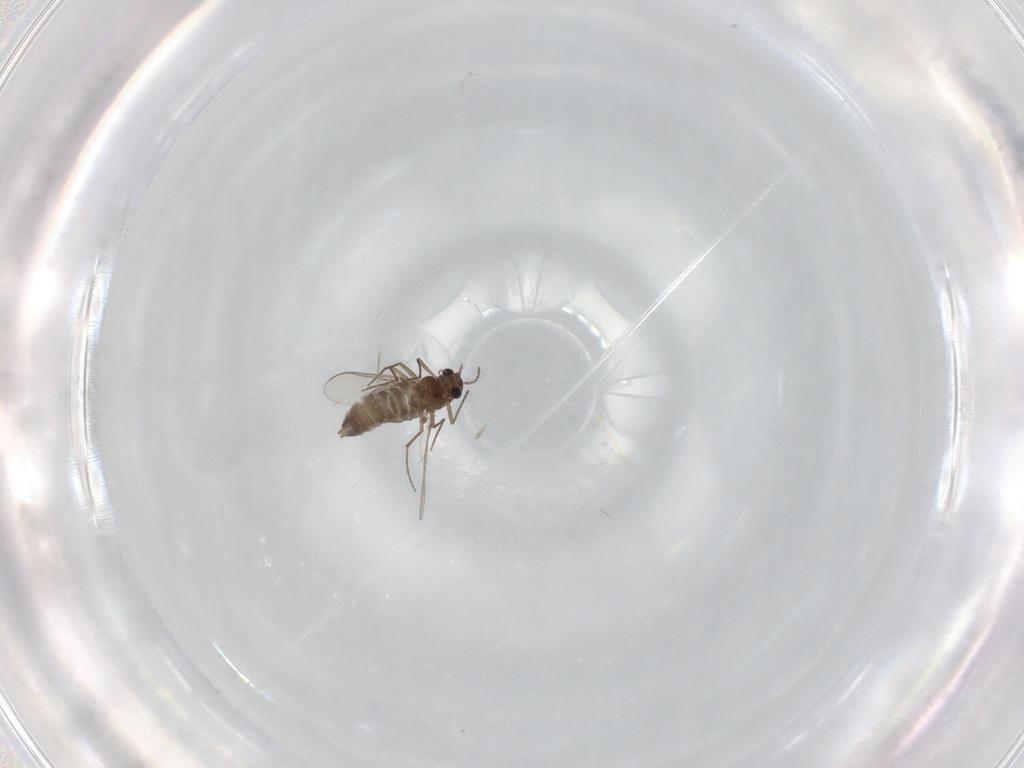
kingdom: Animalia
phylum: Arthropoda
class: Insecta
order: Diptera
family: Chironomidae
